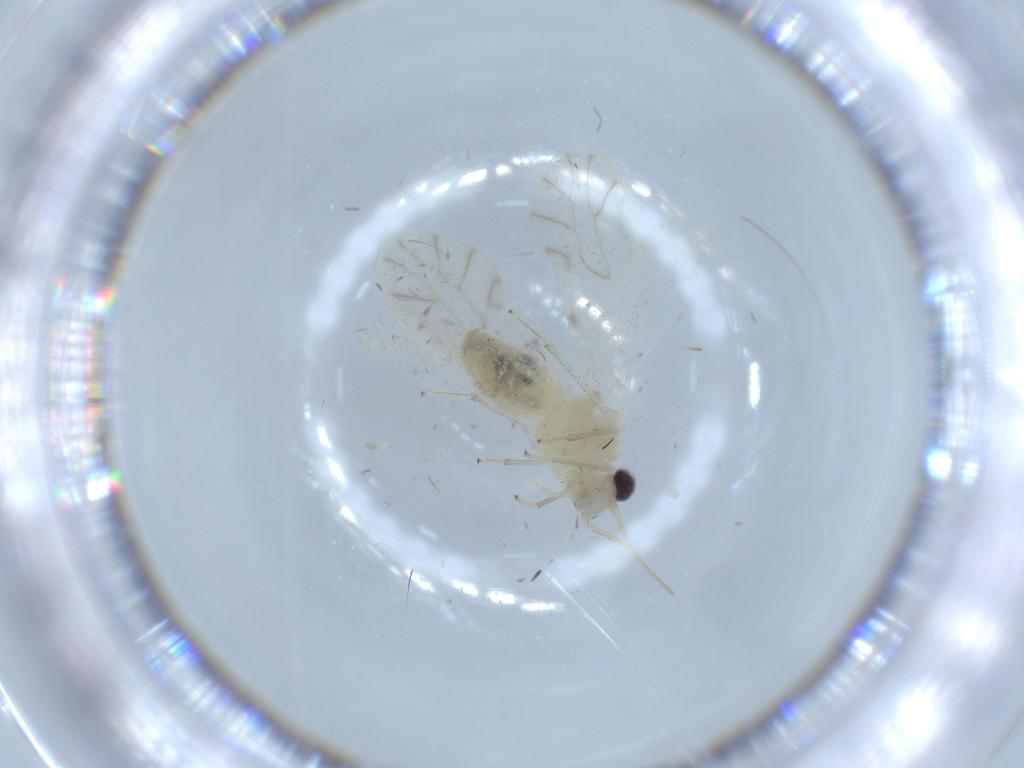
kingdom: Animalia
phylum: Arthropoda
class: Insecta
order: Psocodea
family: Caeciliusidae
